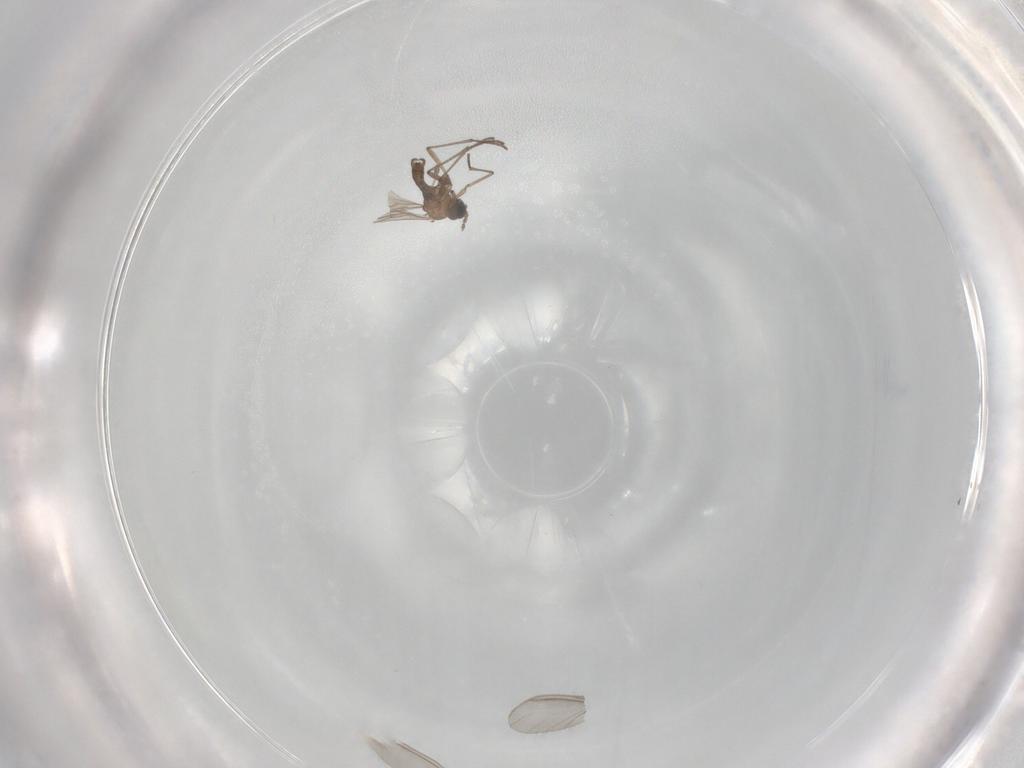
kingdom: Animalia
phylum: Arthropoda
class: Insecta
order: Diptera
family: Sciaridae
